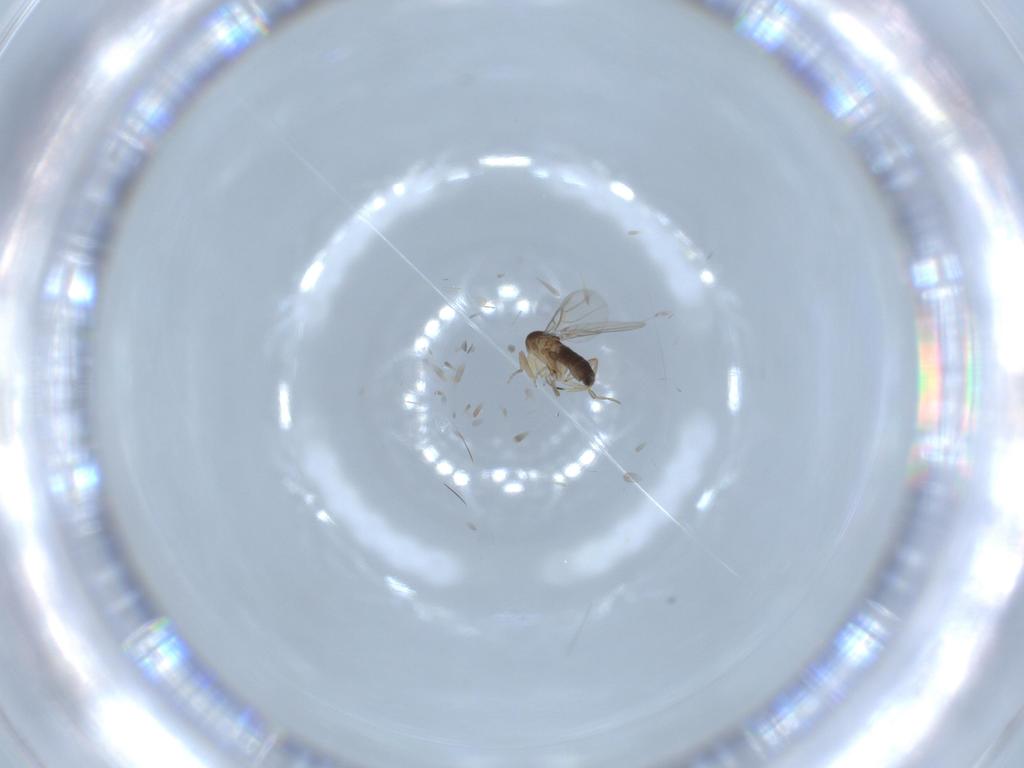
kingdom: Animalia
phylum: Arthropoda
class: Insecta
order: Diptera
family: Phoridae
